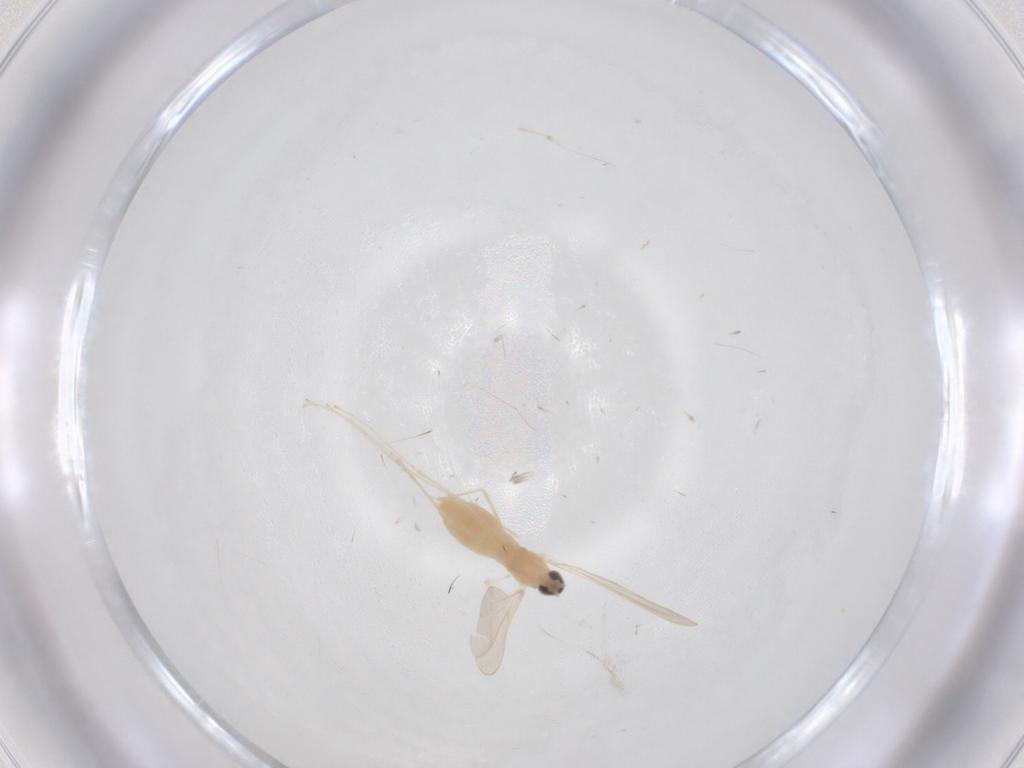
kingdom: Animalia
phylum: Arthropoda
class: Insecta
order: Diptera
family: Cecidomyiidae
